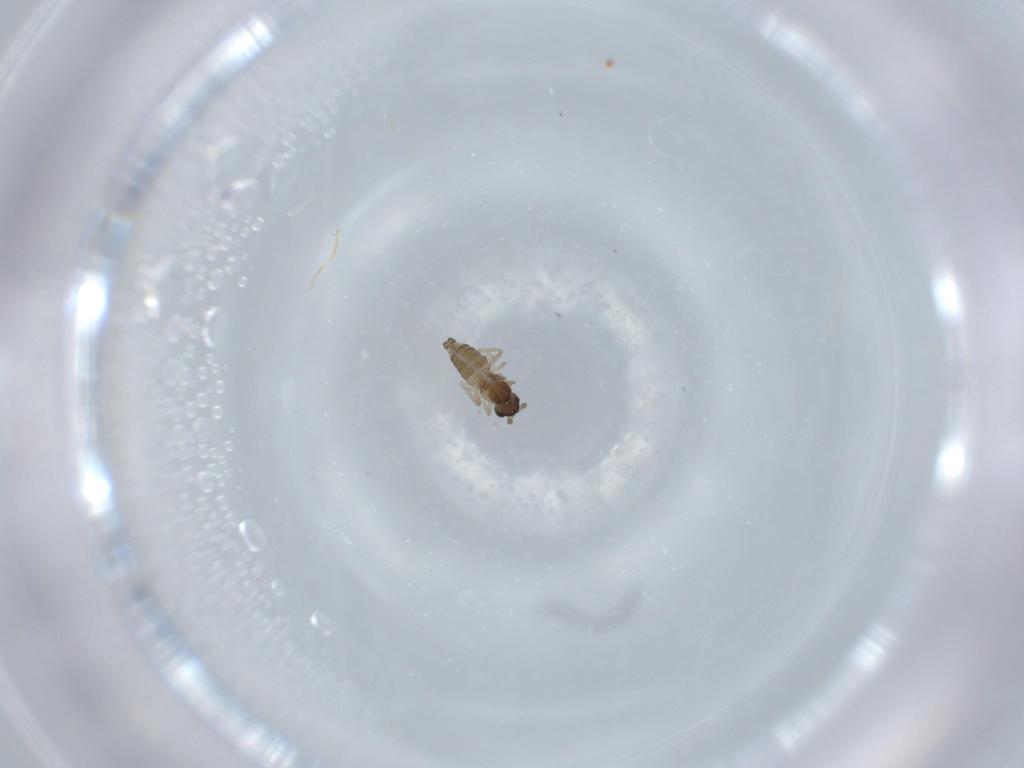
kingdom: Animalia
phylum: Arthropoda
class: Insecta
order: Diptera
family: Cecidomyiidae
